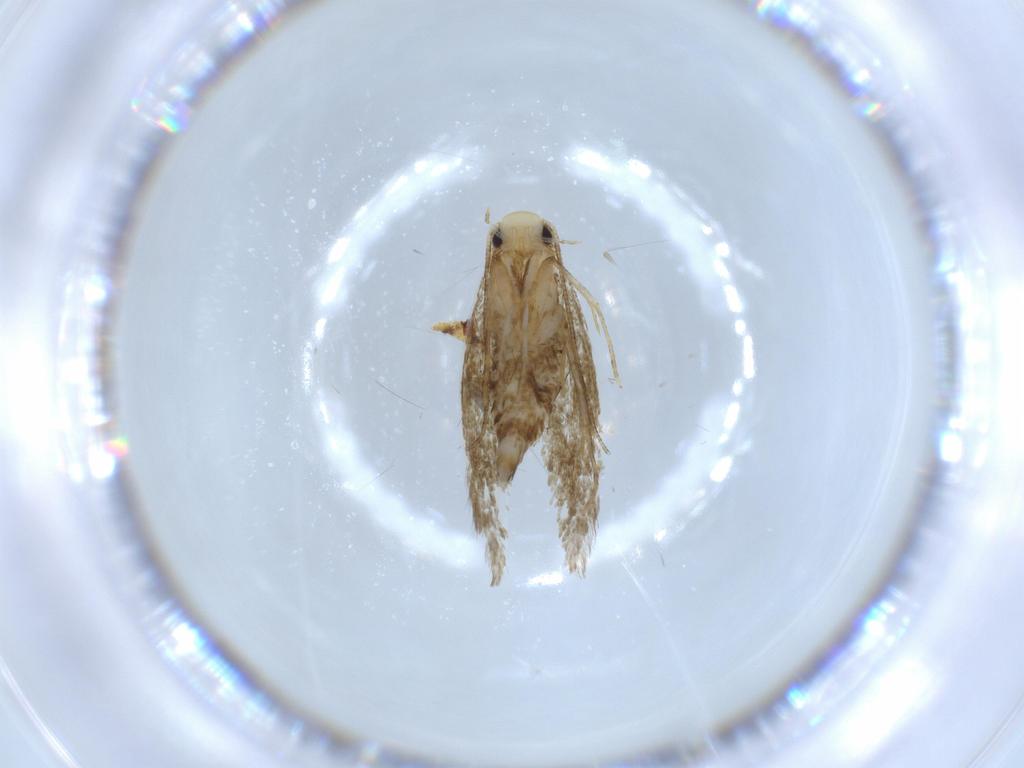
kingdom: Animalia
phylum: Arthropoda
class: Insecta
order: Lepidoptera
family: Tineidae
